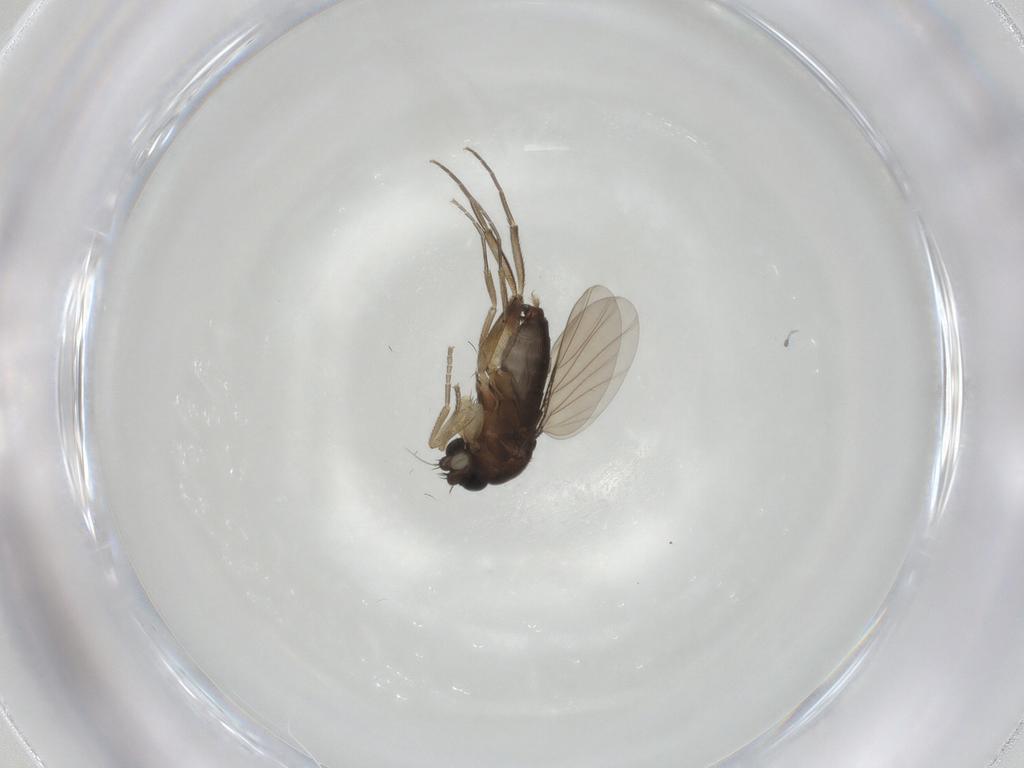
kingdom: Animalia
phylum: Arthropoda
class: Insecta
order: Diptera
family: Phoridae
